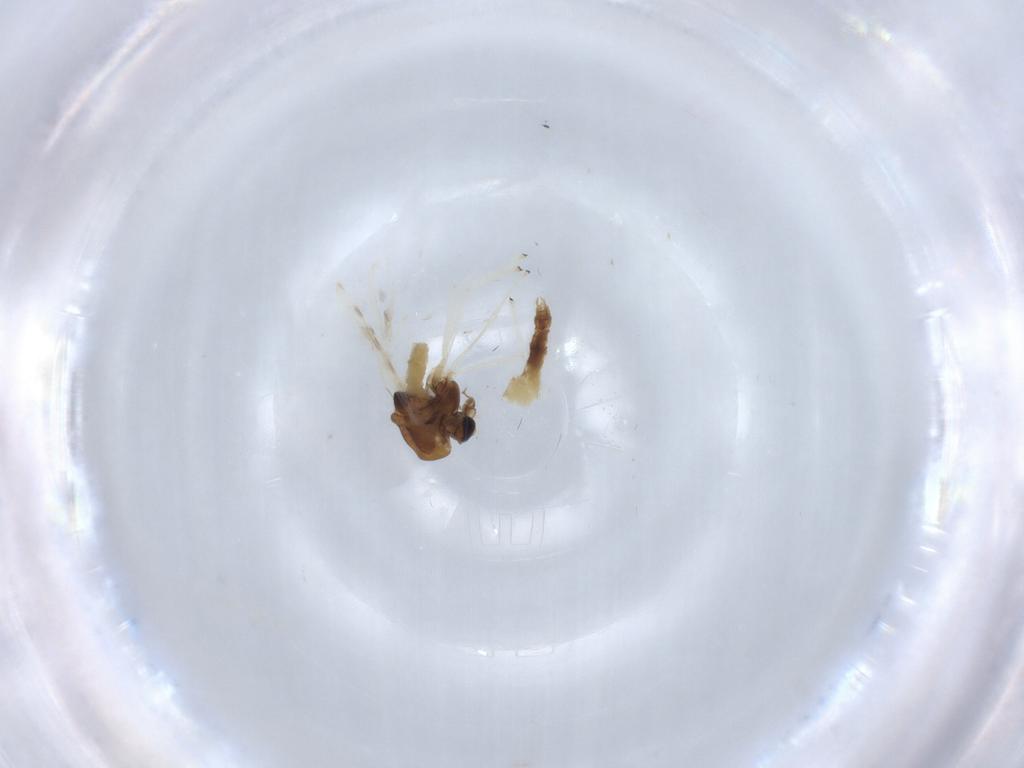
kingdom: Animalia
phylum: Arthropoda
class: Insecta
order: Diptera
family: Chironomidae
